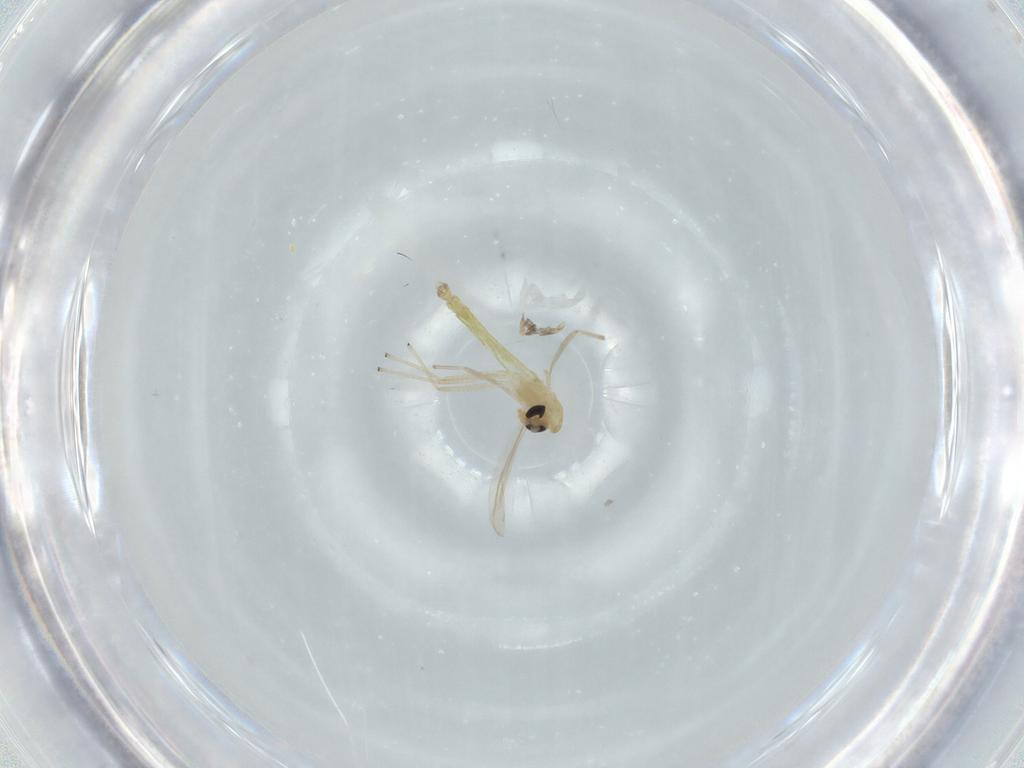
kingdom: Animalia
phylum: Arthropoda
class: Insecta
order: Diptera
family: Chironomidae
